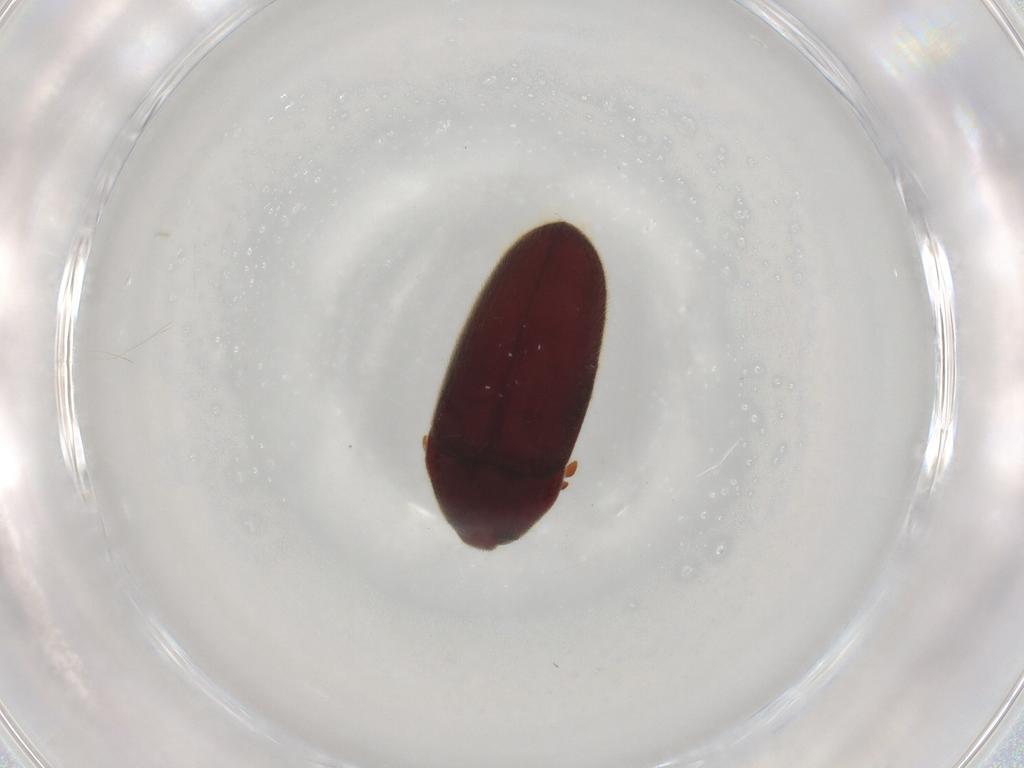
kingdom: Animalia
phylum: Arthropoda
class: Insecta
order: Coleoptera
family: Throscidae
